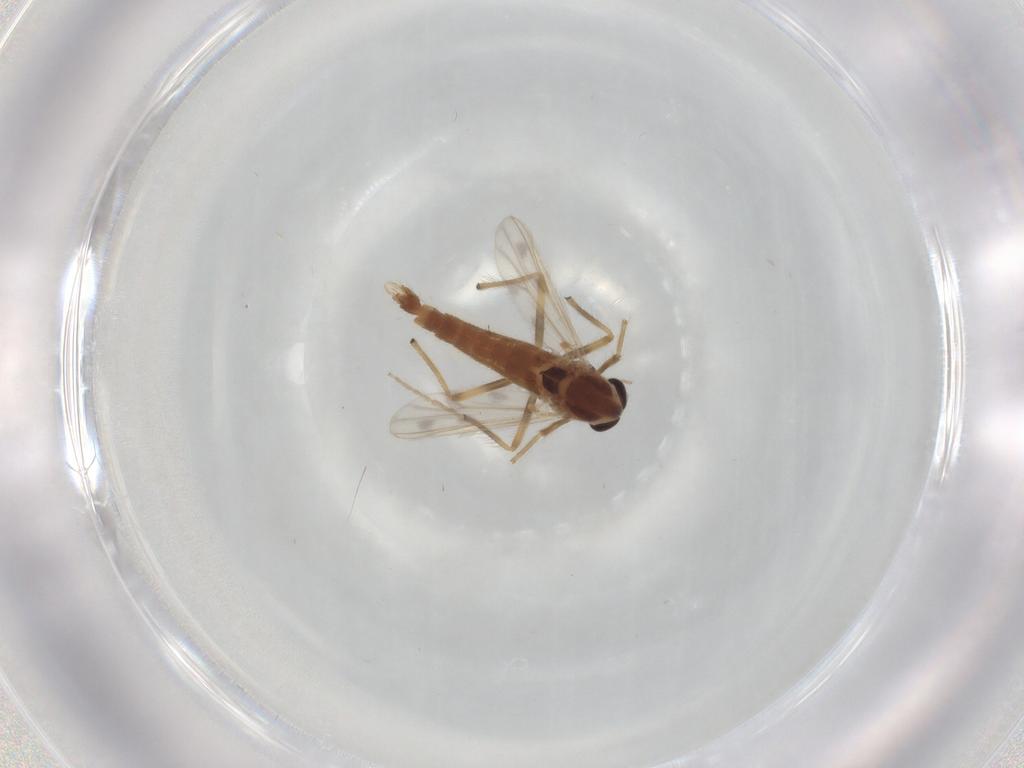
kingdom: Animalia
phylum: Arthropoda
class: Insecta
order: Diptera
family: Chironomidae
